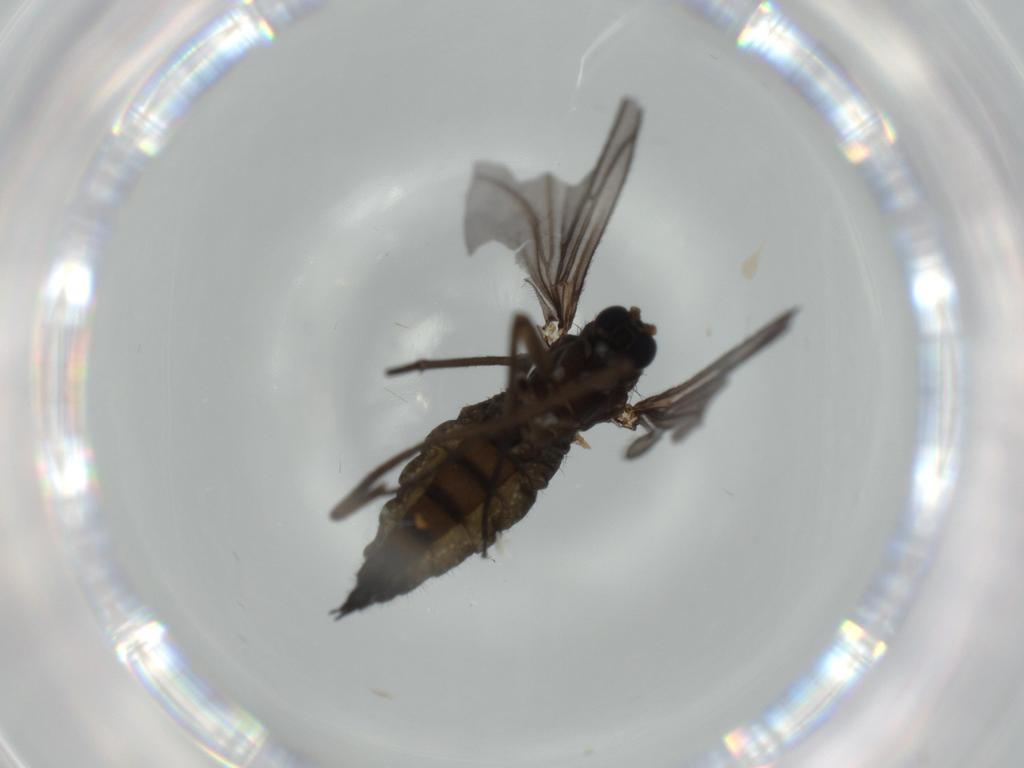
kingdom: Animalia
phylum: Arthropoda
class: Insecta
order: Diptera
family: Sciaridae
